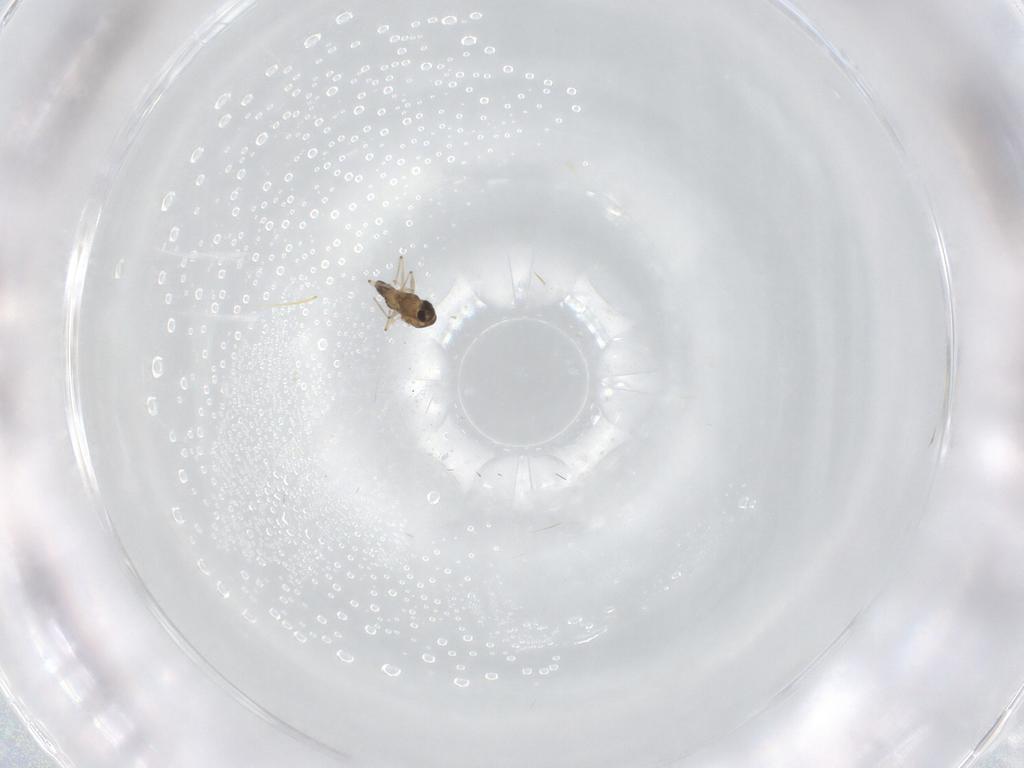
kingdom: Animalia
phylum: Arthropoda
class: Insecta
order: Diptera
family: Chironomidae
